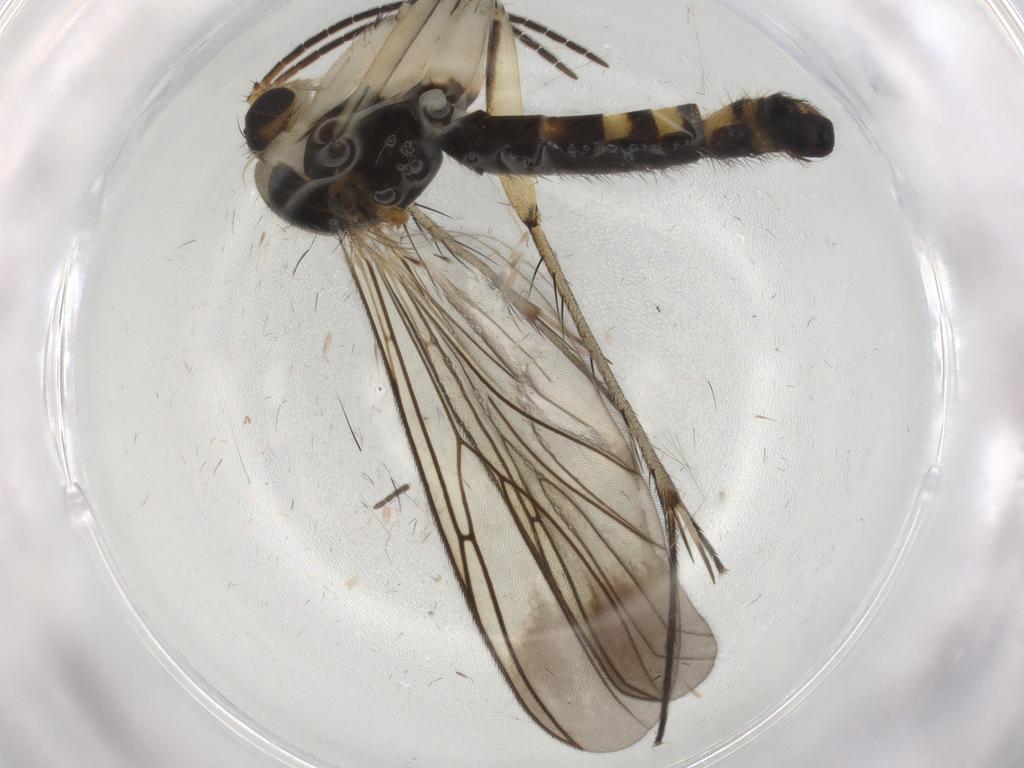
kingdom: Animalia
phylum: Arthropoda
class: Insecta
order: Diptera
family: Mycetophilidae
